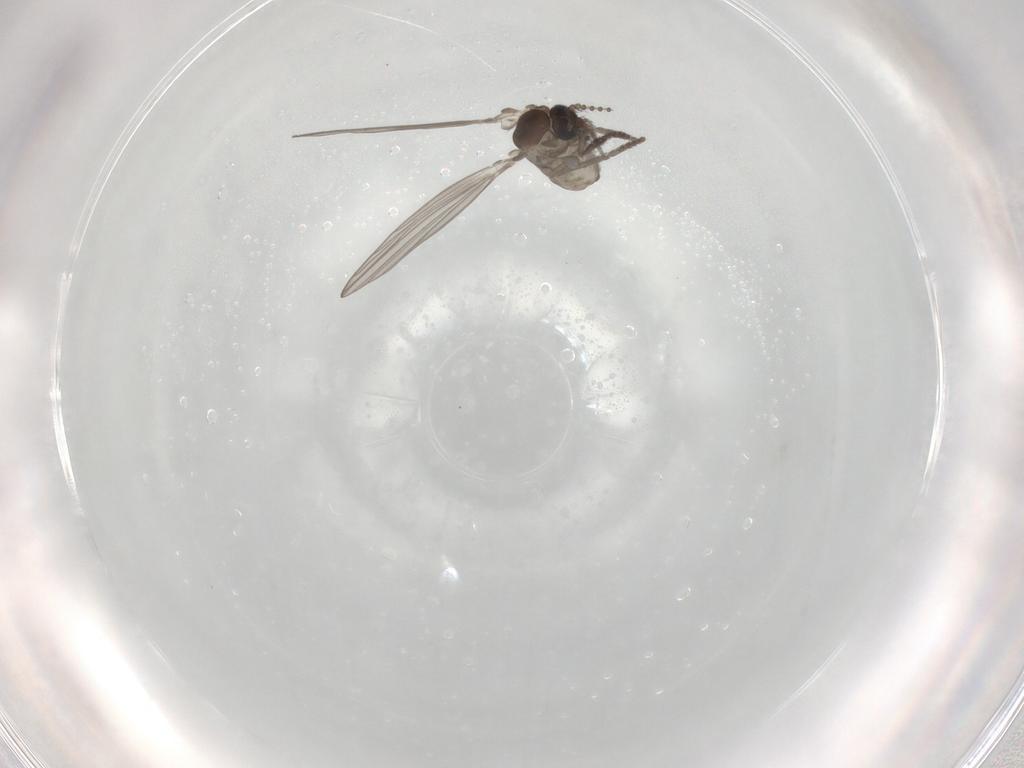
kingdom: Animalia
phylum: Arthropoda
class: Insecta
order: Diptera
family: Psychodidae
